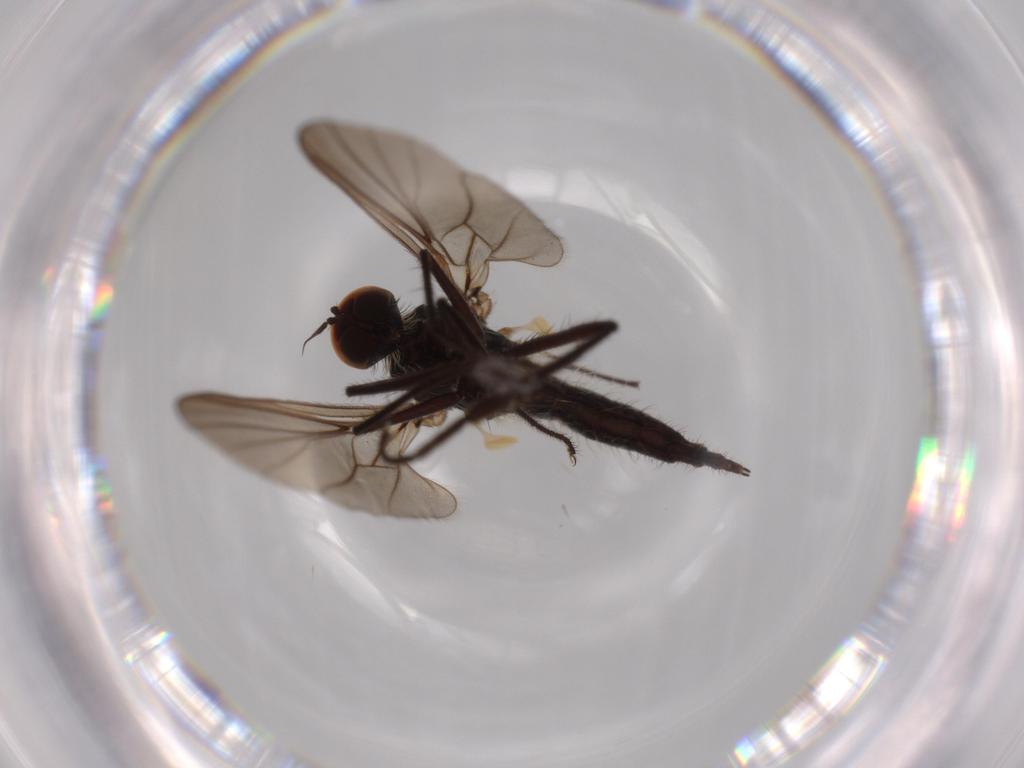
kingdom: Animalia
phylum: Arthropoda
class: Insecta
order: Diptera
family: Hybotidae
